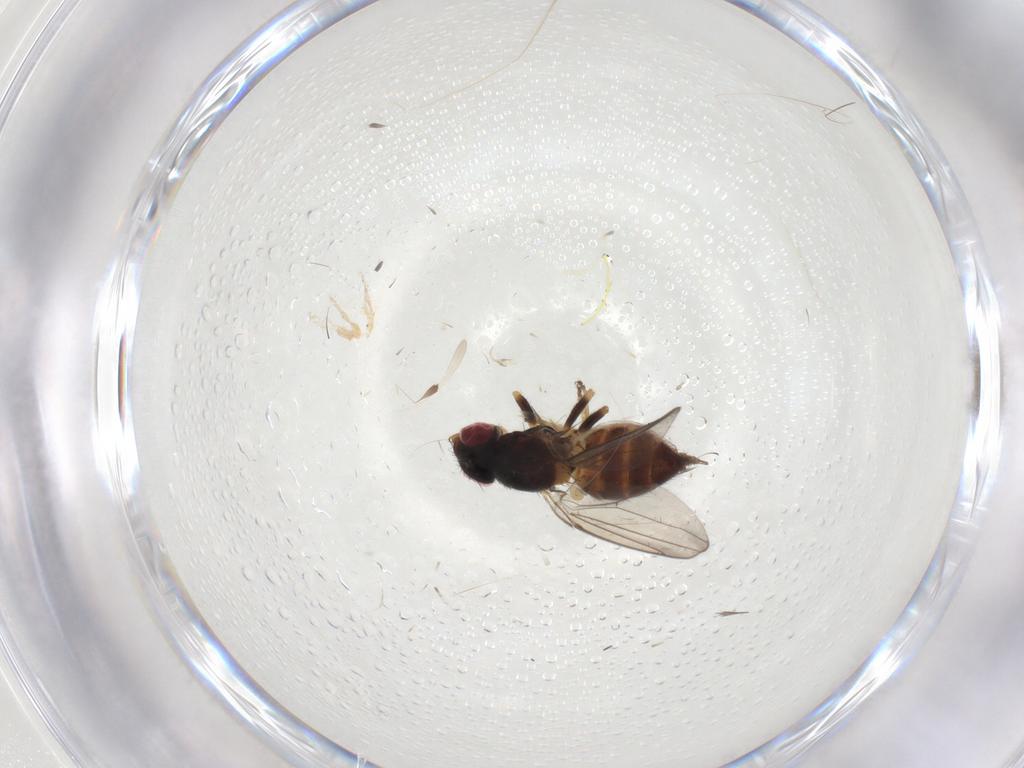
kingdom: Animalia
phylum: Arthropoda
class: Insecta
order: Diptera
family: Chloropidae
